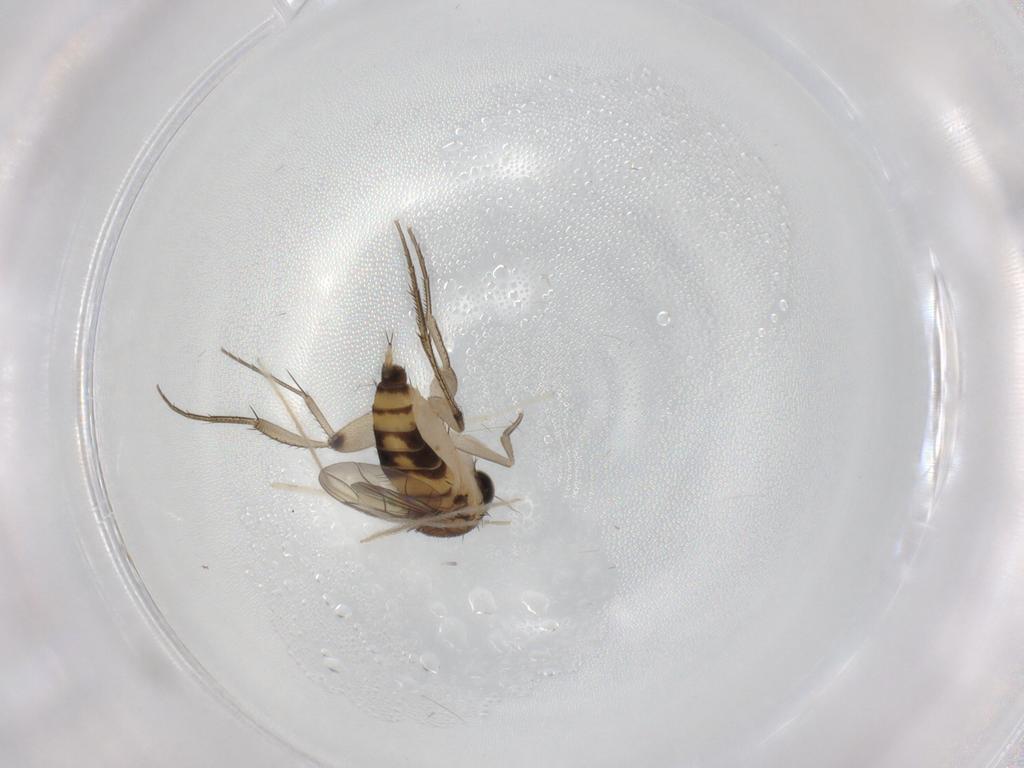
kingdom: Animalia
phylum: Arthropoda
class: Insecta
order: Diptera
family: Phoridae
